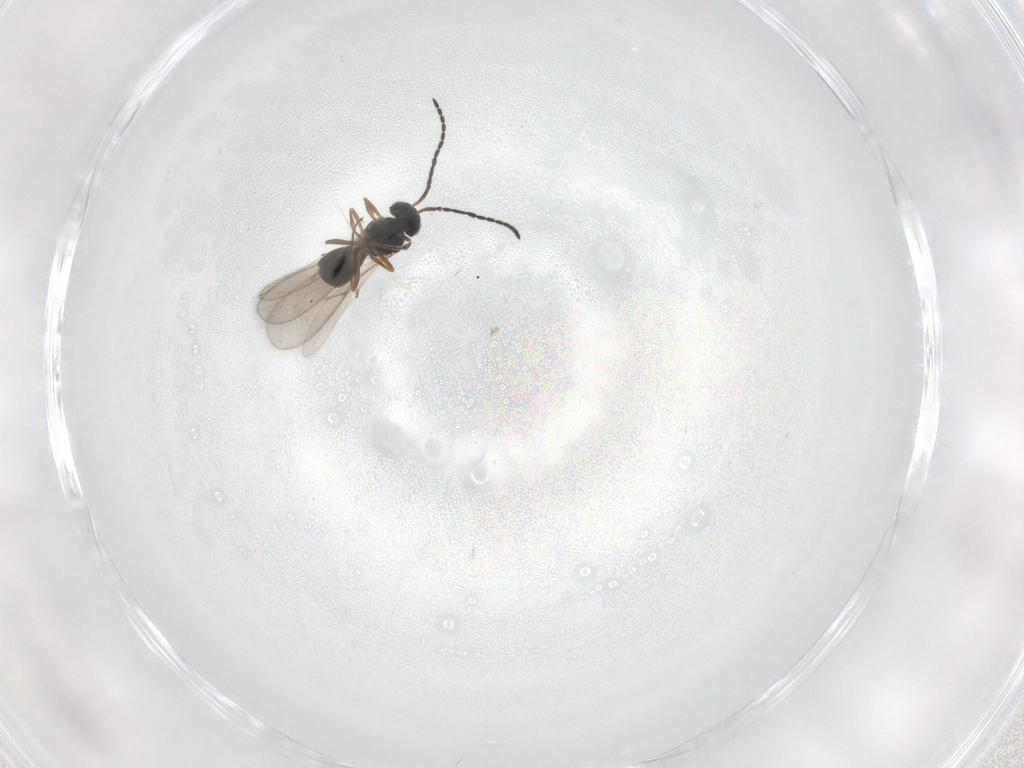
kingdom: Animalia
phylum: Arthropoda
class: Insecta
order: Hymenoptera
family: Scelionidae
